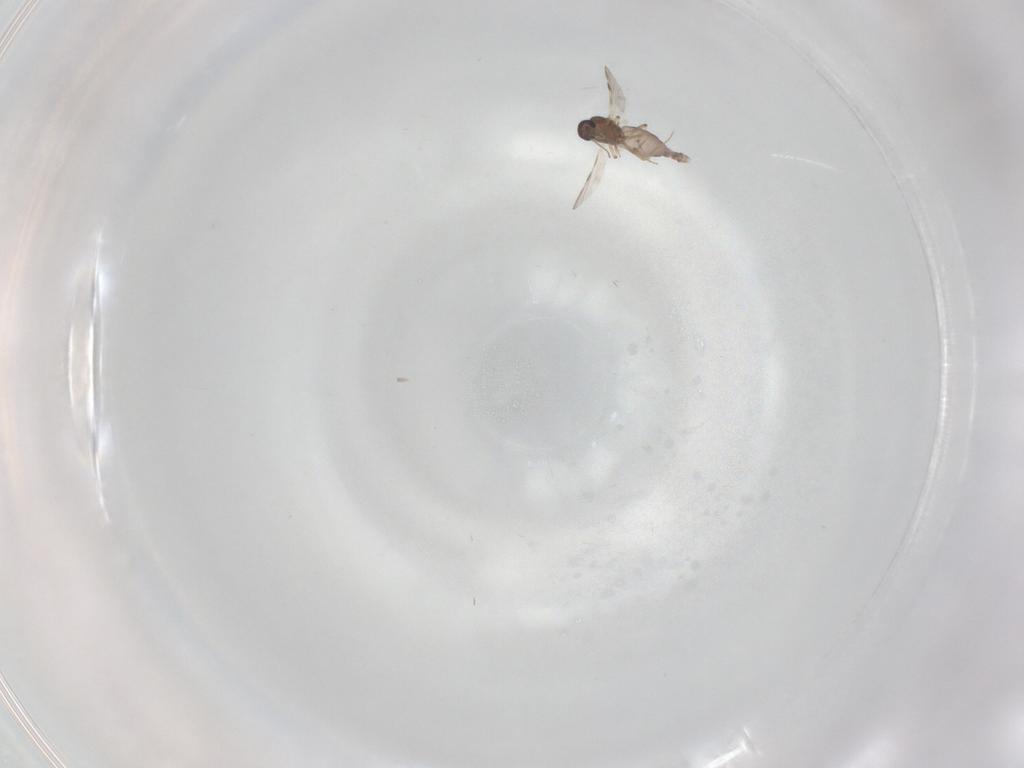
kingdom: Animalia
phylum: Arthropoda
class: Insecta
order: Diptera
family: Chironomidae
